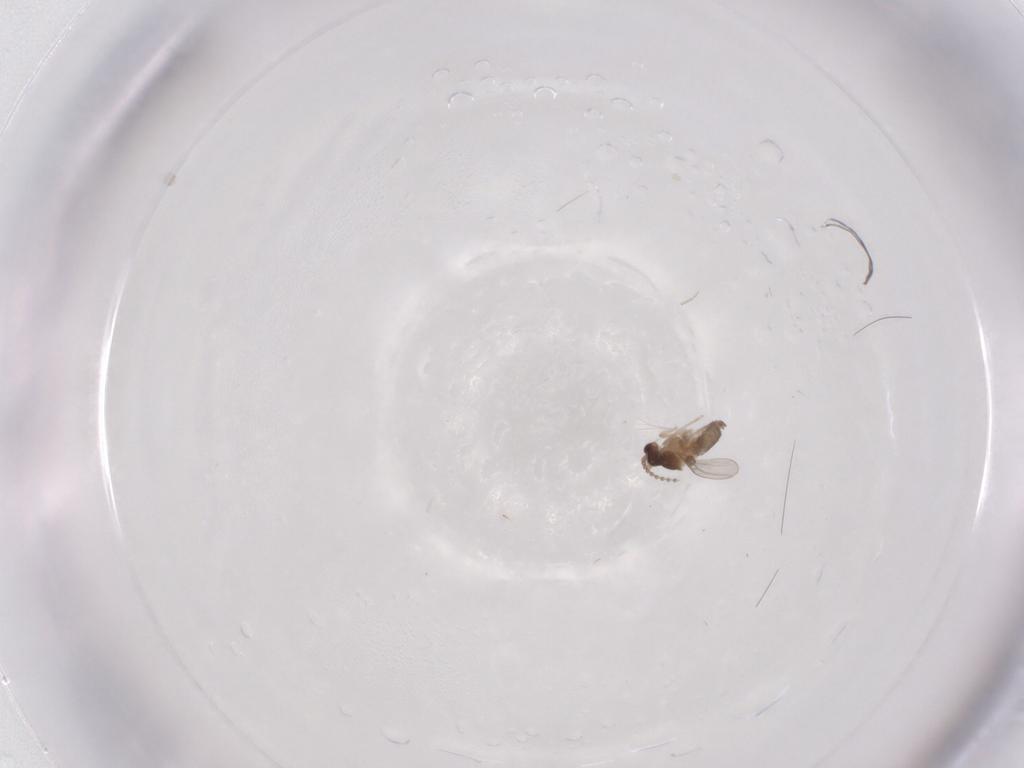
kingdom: Animalia
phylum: Arthropoda
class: Insecta
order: Diptera
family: Cecidomyiidae
